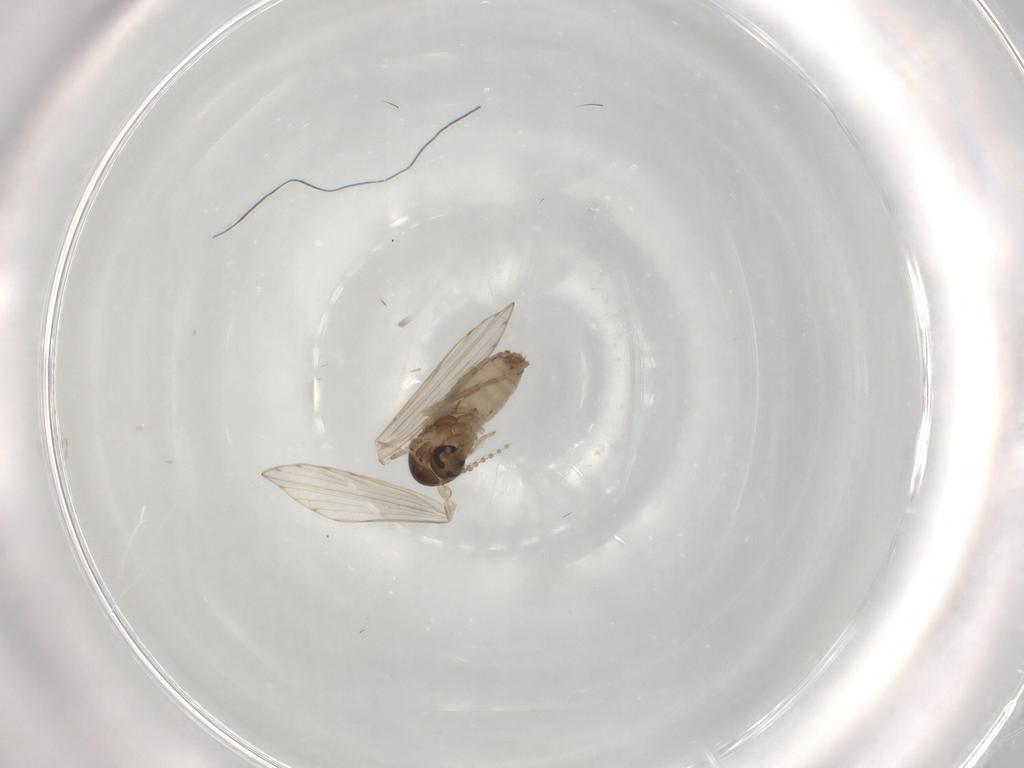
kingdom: Animalia
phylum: Arthropoda
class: Insecta
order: Diptera
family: Psychodidae
